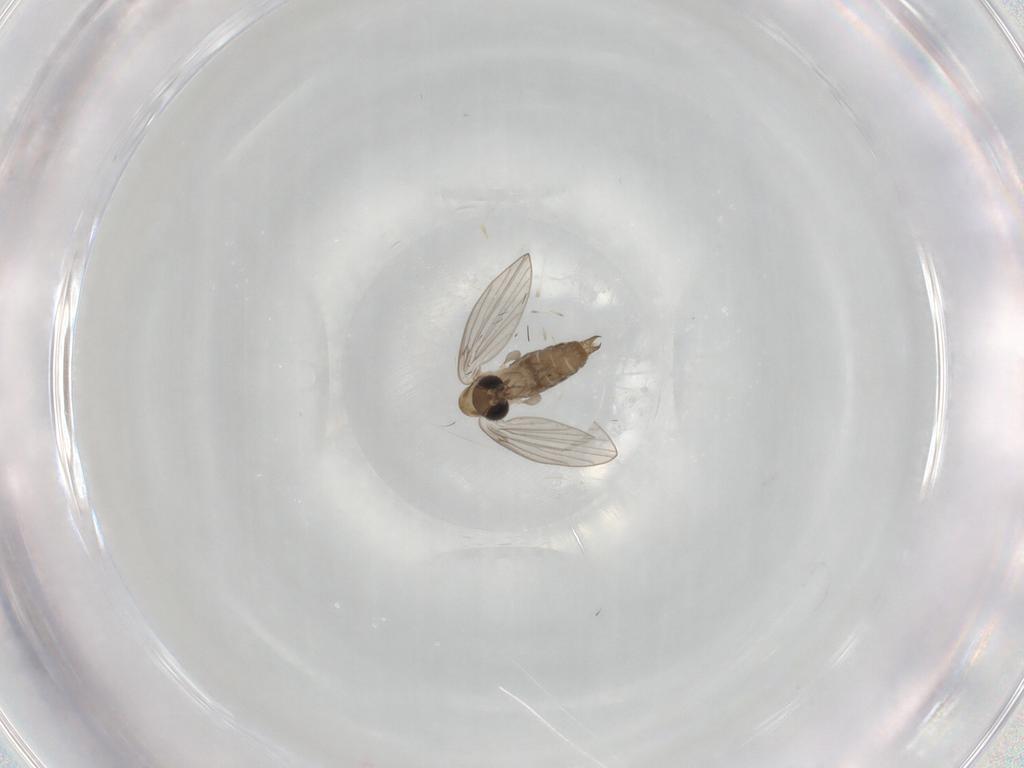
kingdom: Animalia
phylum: Arthropoda
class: Insecta
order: Diptera
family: Psychodidae
